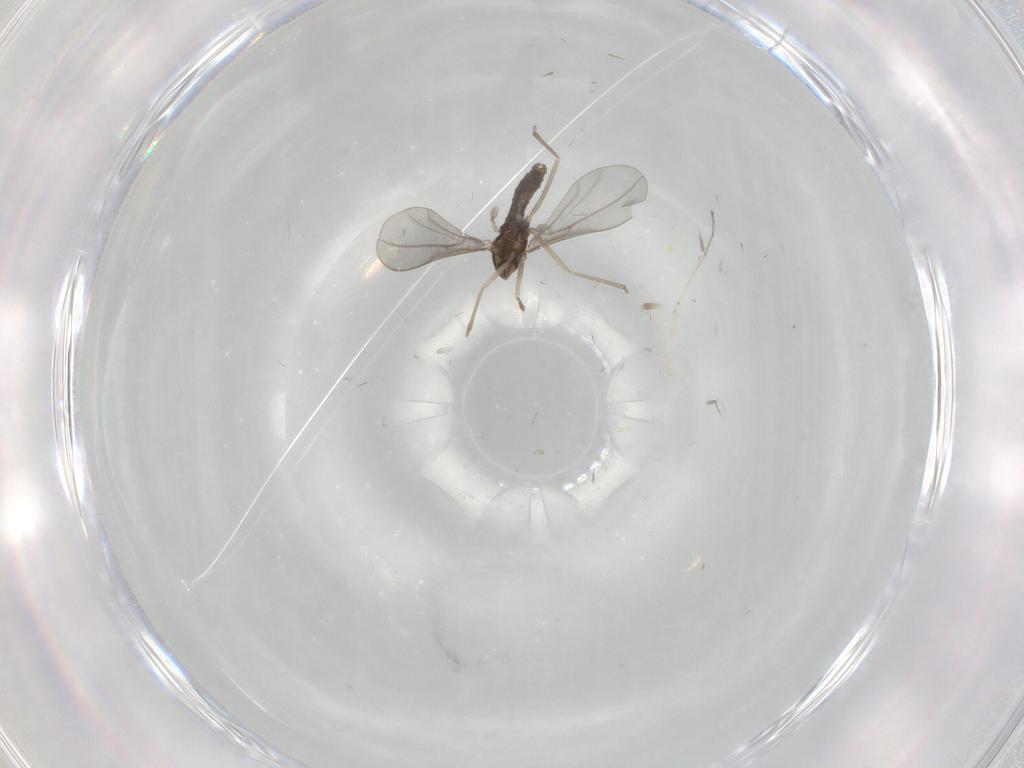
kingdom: Animalia
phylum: Arthropoda
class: Insecta
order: Diptera
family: Cecidomyiidae
